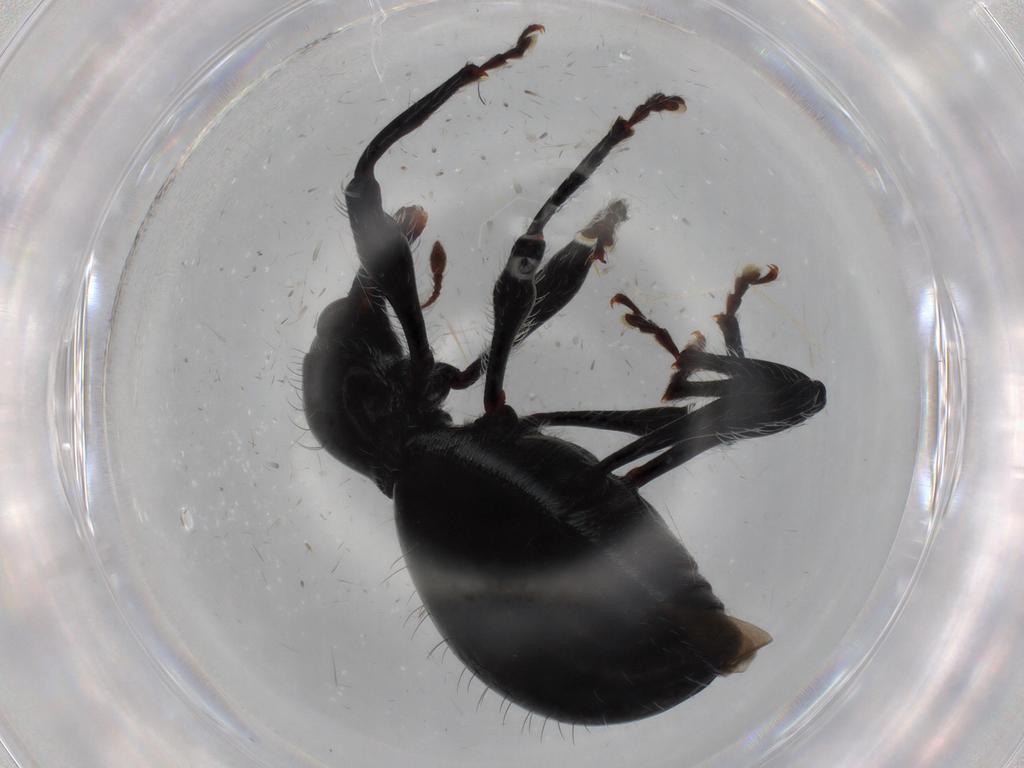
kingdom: Animalia
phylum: Arthropoda
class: Insecta
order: Coleoptera
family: Curculionidae
